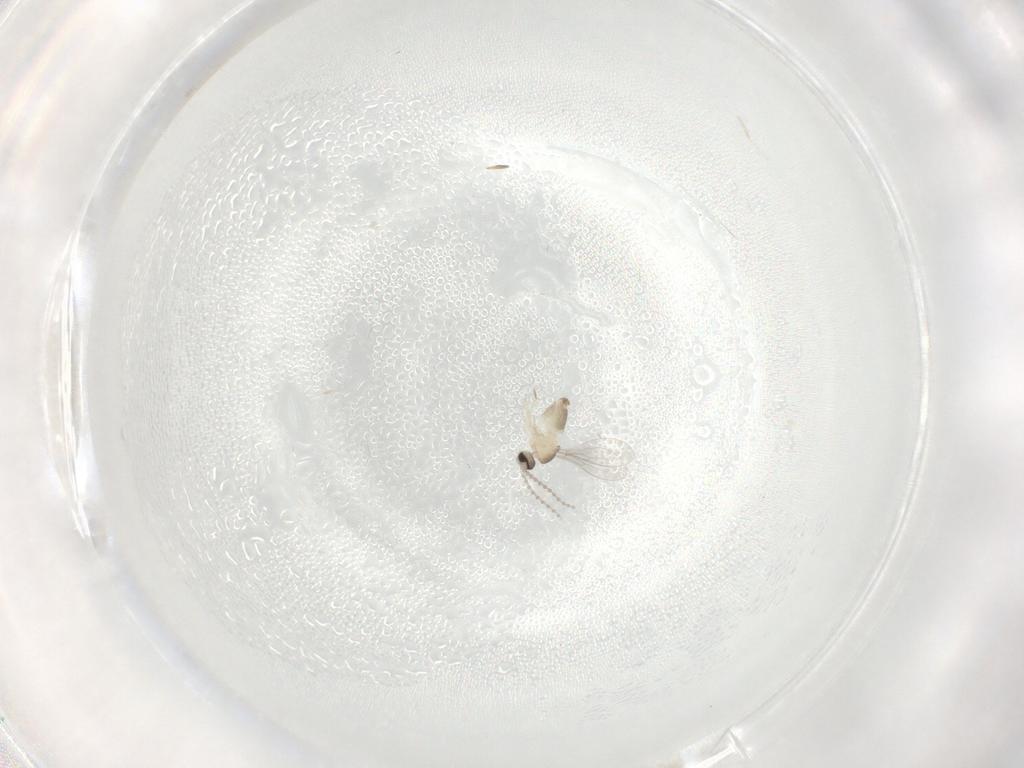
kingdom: Animalia
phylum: Arthropoda
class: Insecta
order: Diptera
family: Cecidomyiidae
